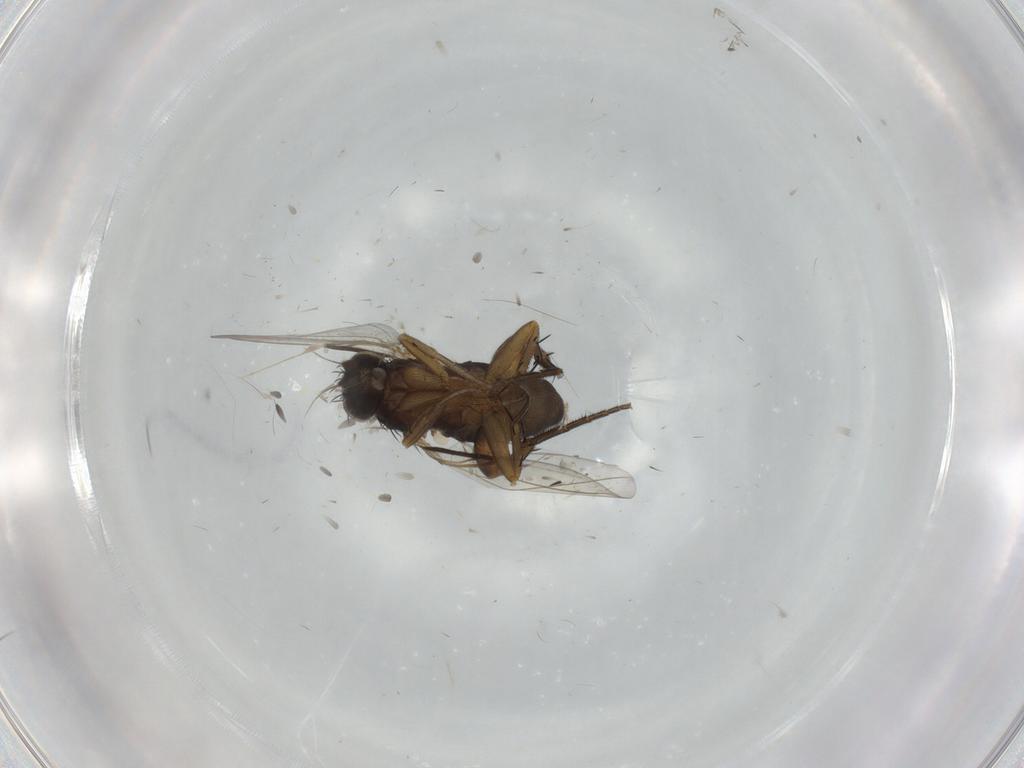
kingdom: Animalia
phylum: Arthropoda
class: Insecta
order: Diptera
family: Phoridae
